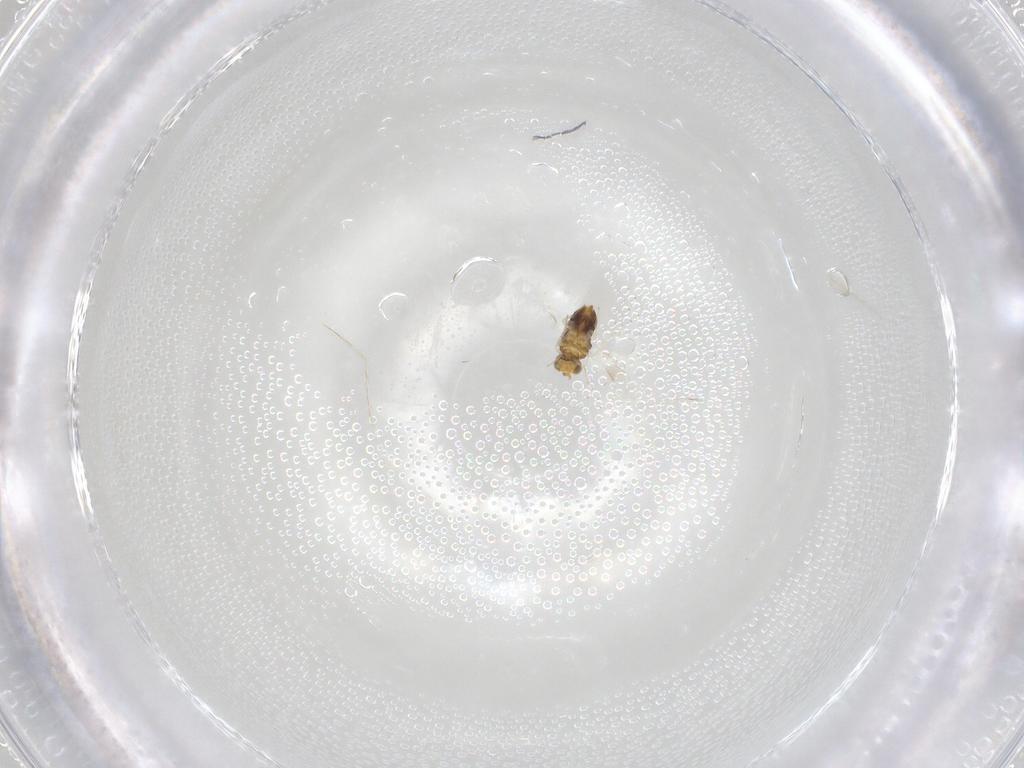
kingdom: Animalia
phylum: Arthropoda
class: Insecta
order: Hymenoptera
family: Aphelinidae
